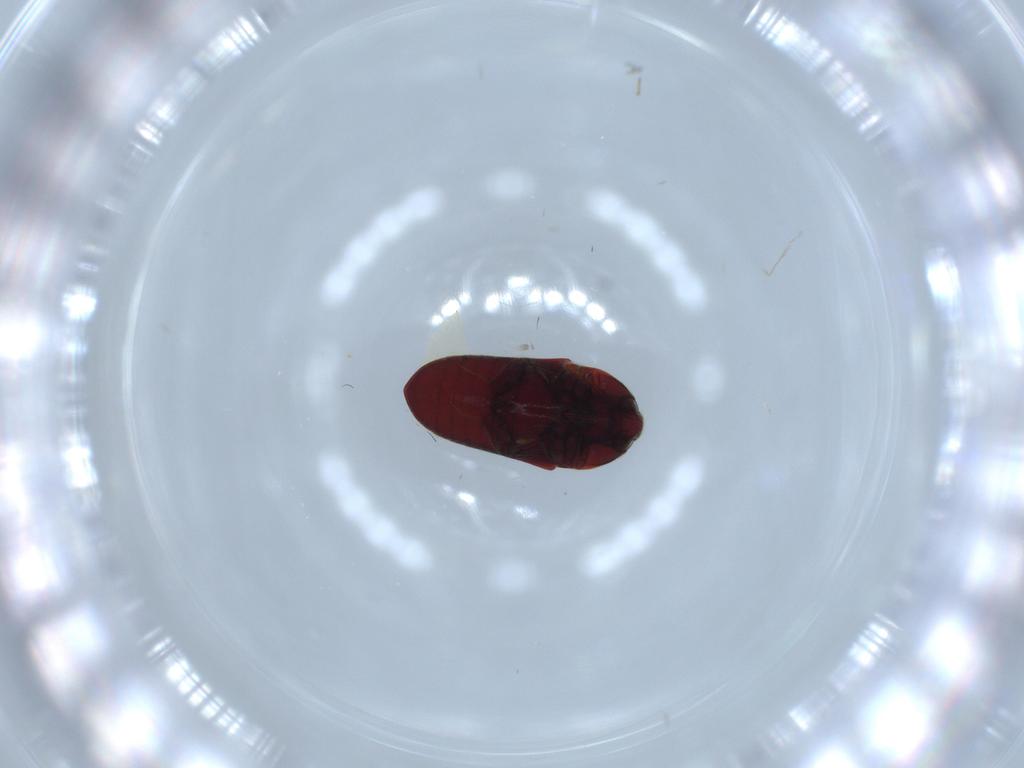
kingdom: Animalia
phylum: Arthropoda
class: Insecta
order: Coleoptera
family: Throscidae
